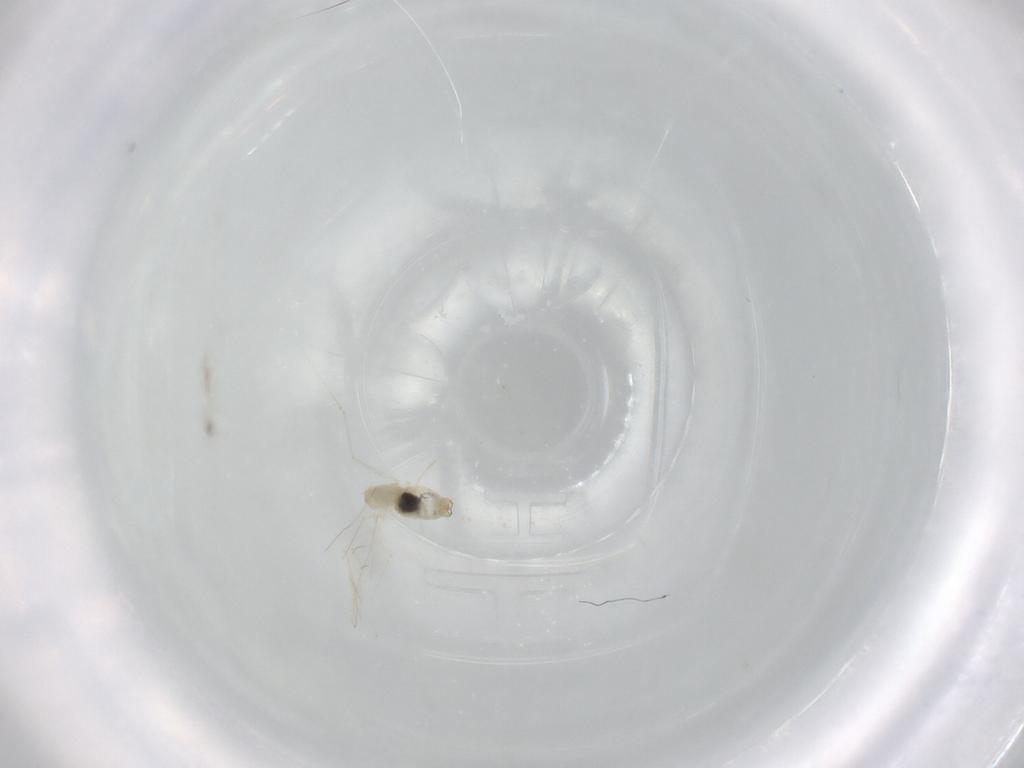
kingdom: Animalia
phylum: Arthropoda
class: Insecta
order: Diptera
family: Cecidomyiidae
